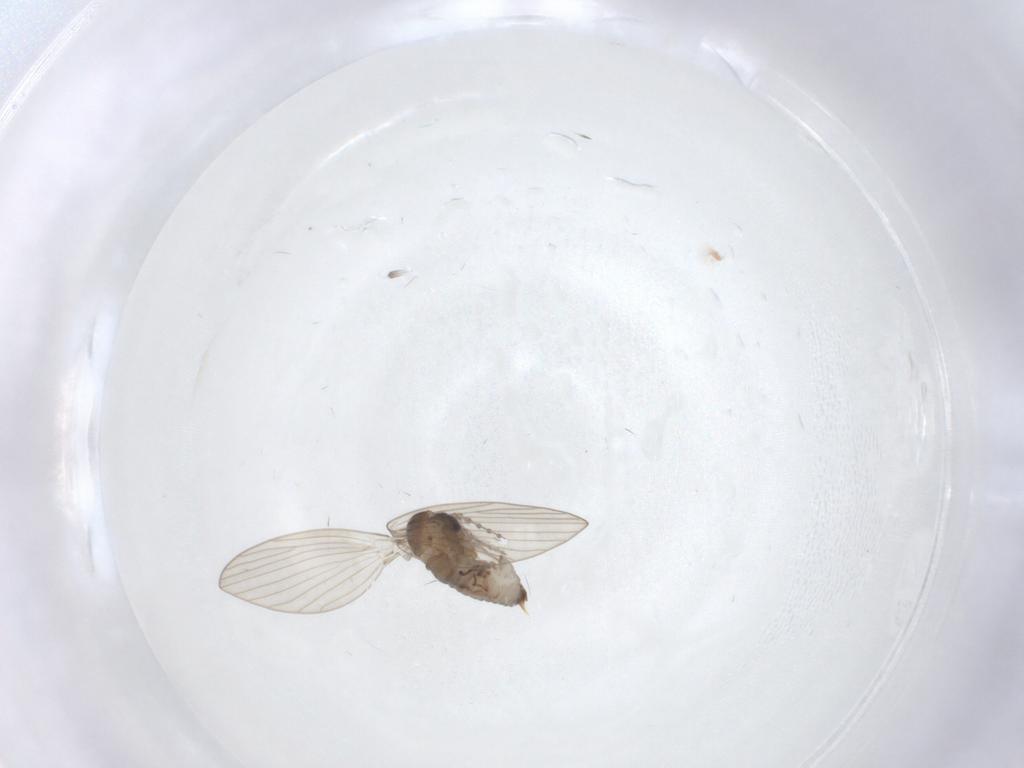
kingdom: Animalia
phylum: Arthropoda
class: Insecta
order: Diptera
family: Psychodidae
